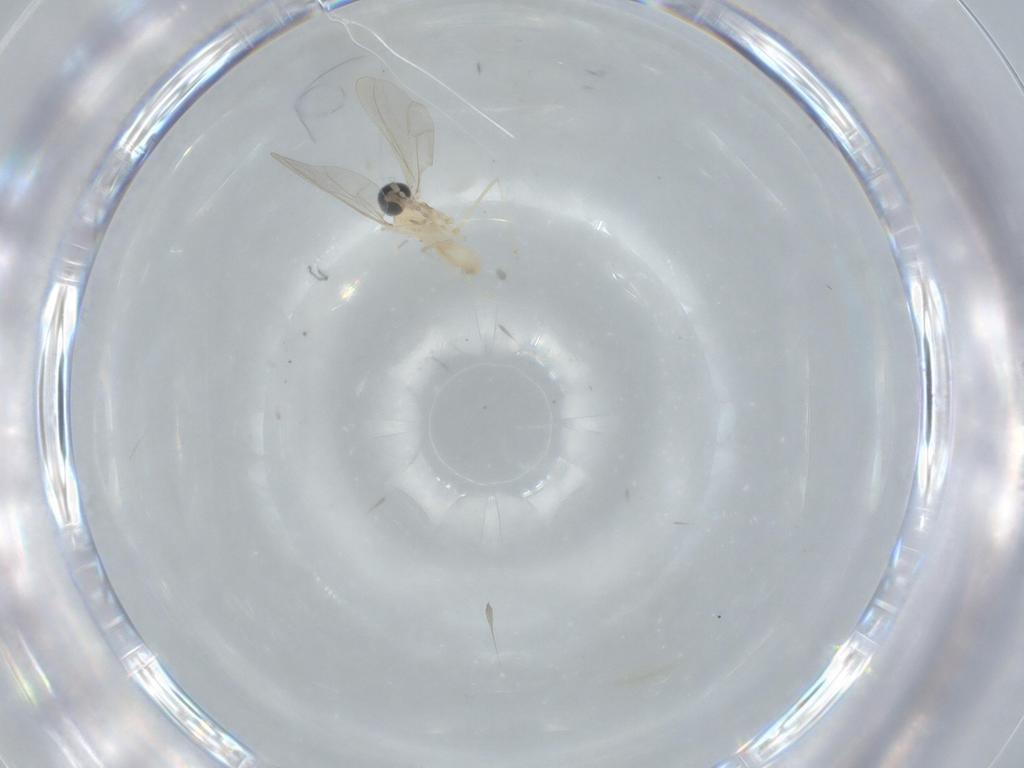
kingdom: Animalia
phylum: Arthropoda
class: Insecta
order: Diptera
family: Cecidomyiidae
